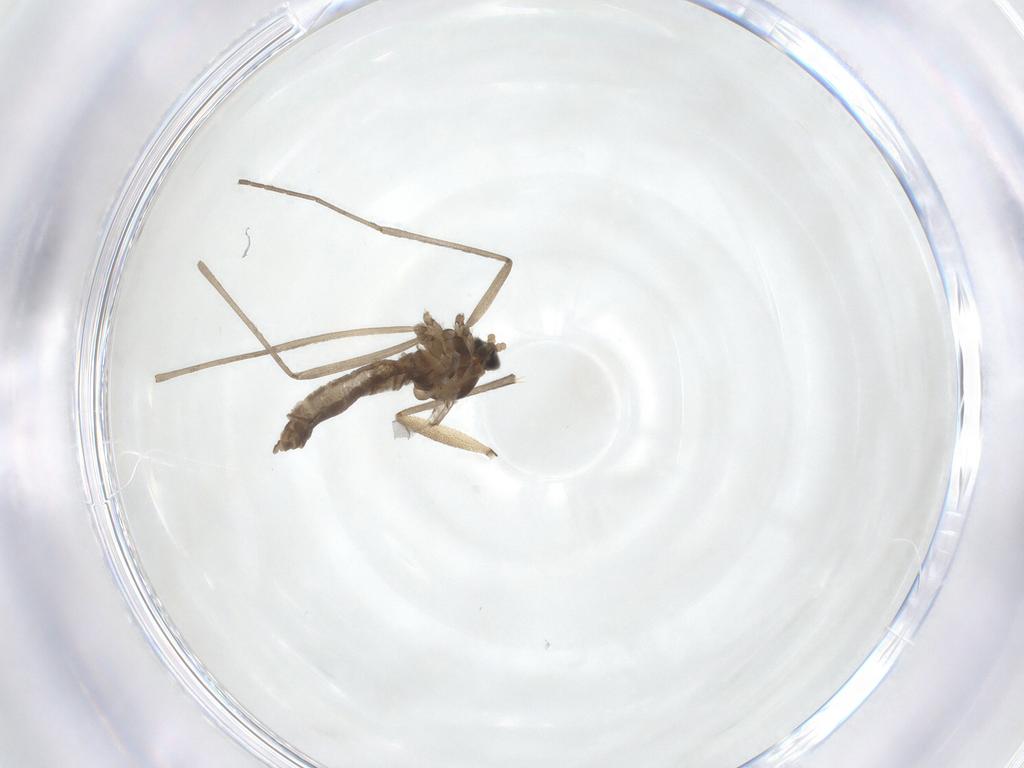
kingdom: Animalia
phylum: Arthropoda
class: Insecta
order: Diptera
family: Cecidomyiidae
